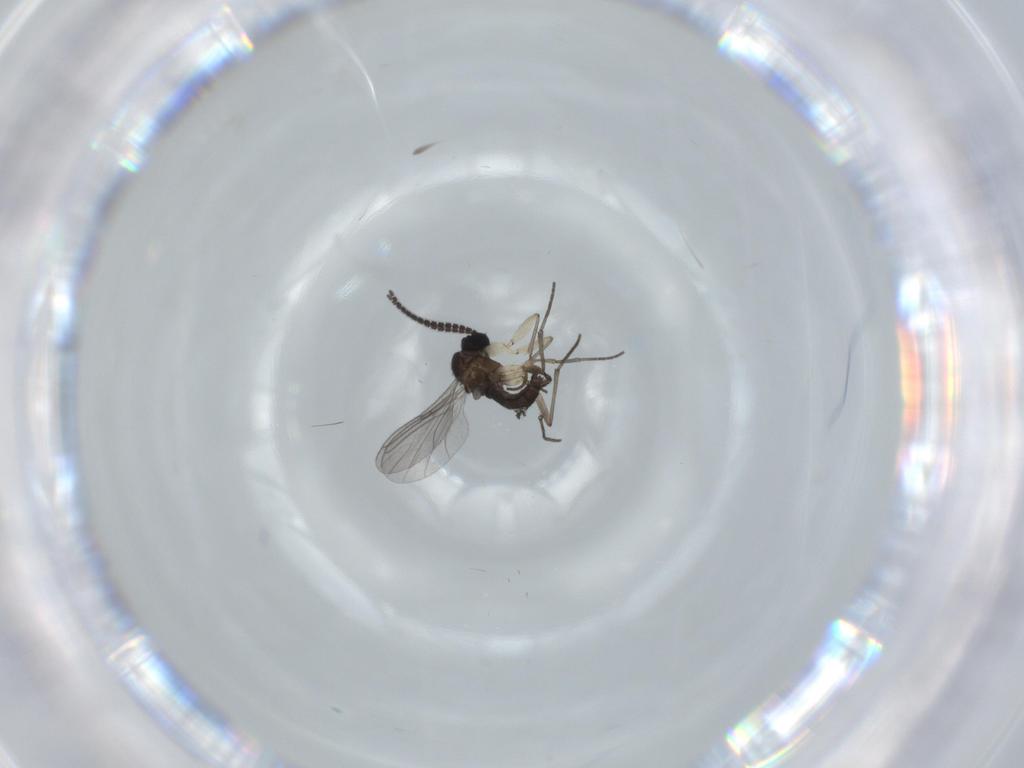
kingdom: Animalia
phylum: Arthropoda
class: Insecta
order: Diptera
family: Sciaridae
